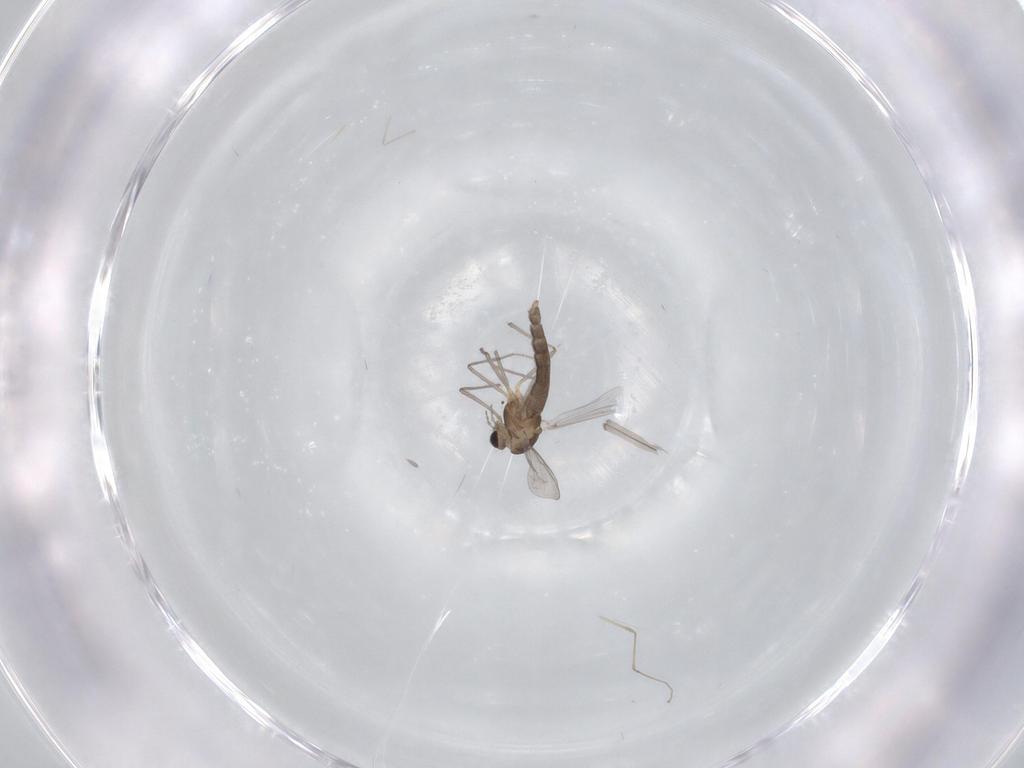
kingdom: Animalia
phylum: Arthropoda
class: Insecta
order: Diptera
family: Chironomidae
